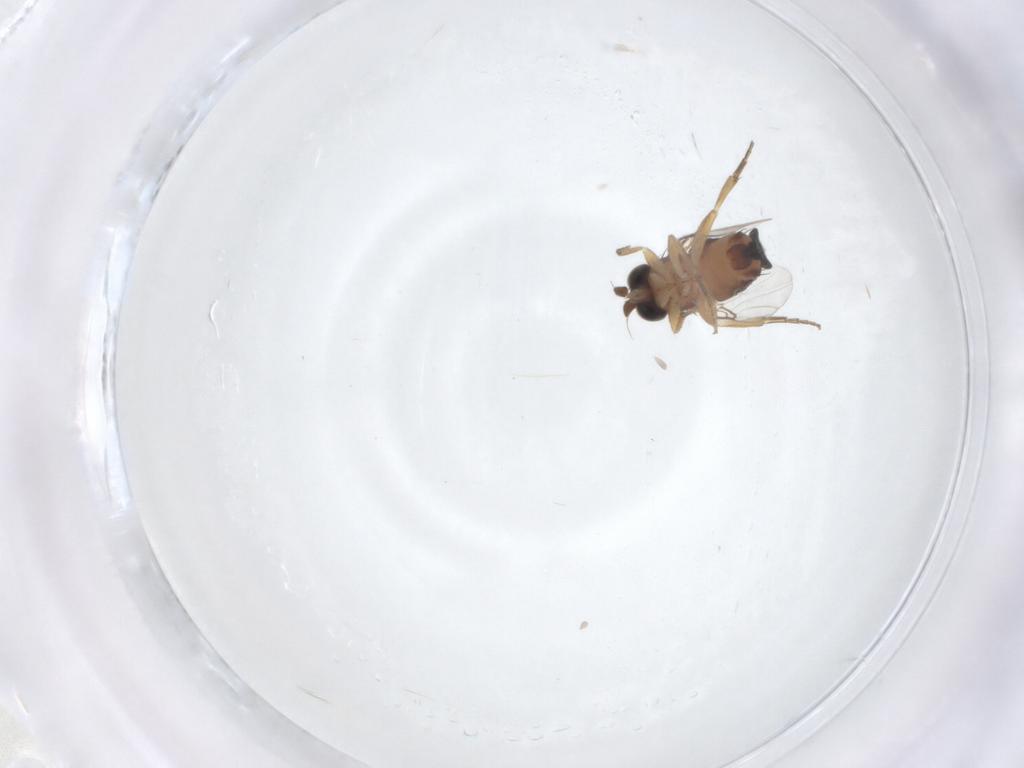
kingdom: Animalia
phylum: Arthropoda
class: Insecta
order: Diptera
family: Phoridae
